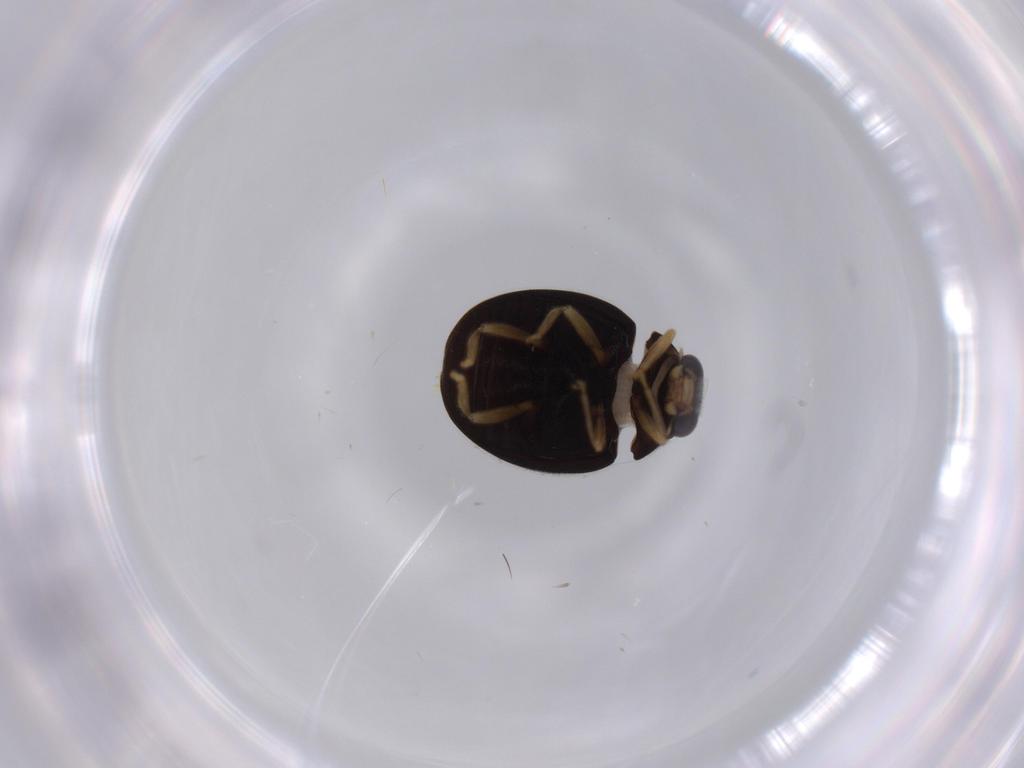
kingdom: Animalia
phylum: Arthropoda
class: Insecta
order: Coleoptera
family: Coccinellidae
